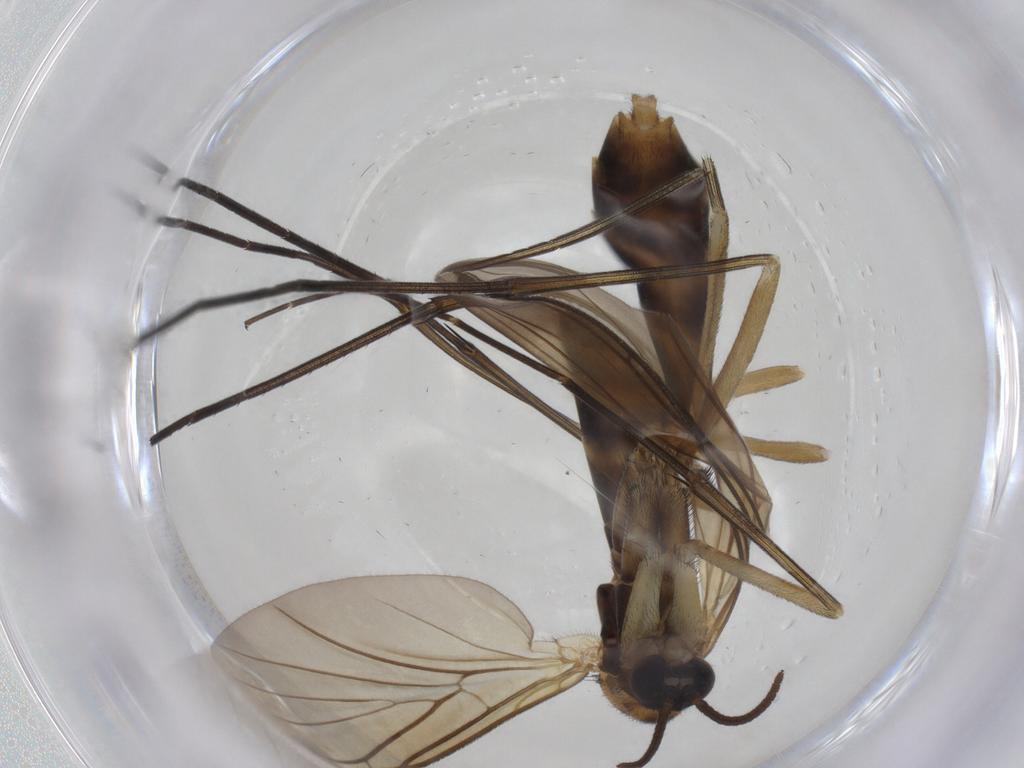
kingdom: Animalia
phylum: Arthropoda
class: Insecta
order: Diptera
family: Keroplatidae
